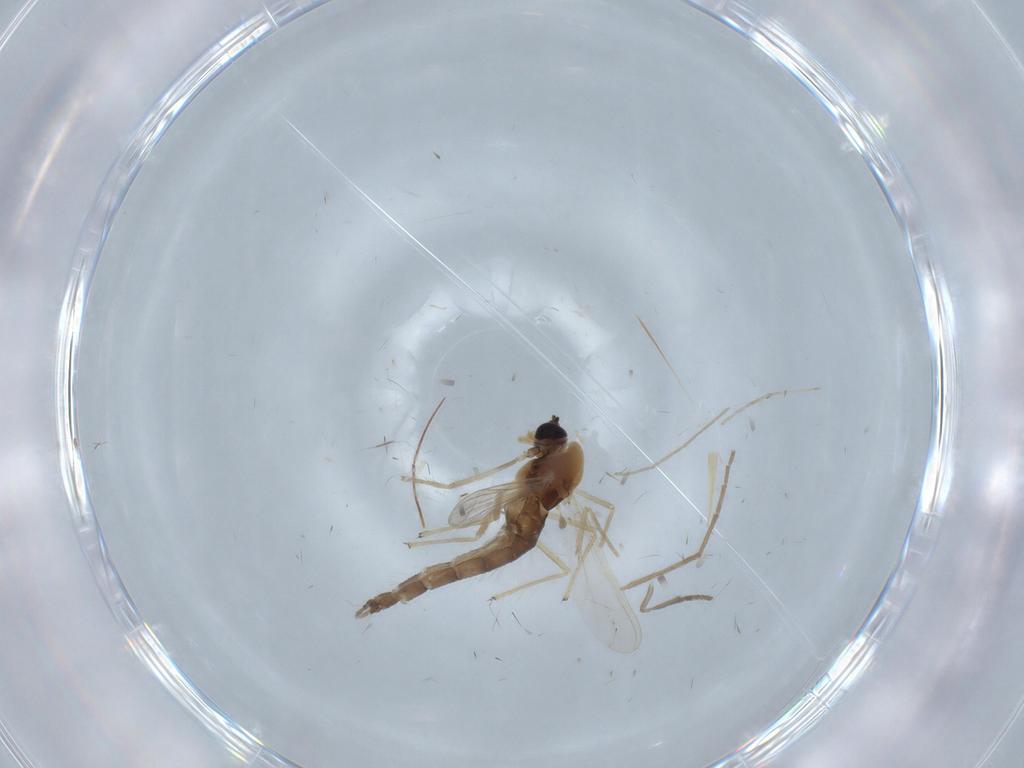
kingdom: Animalia
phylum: Arthropoda
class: Insecta
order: Diptera
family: Chironomidae
